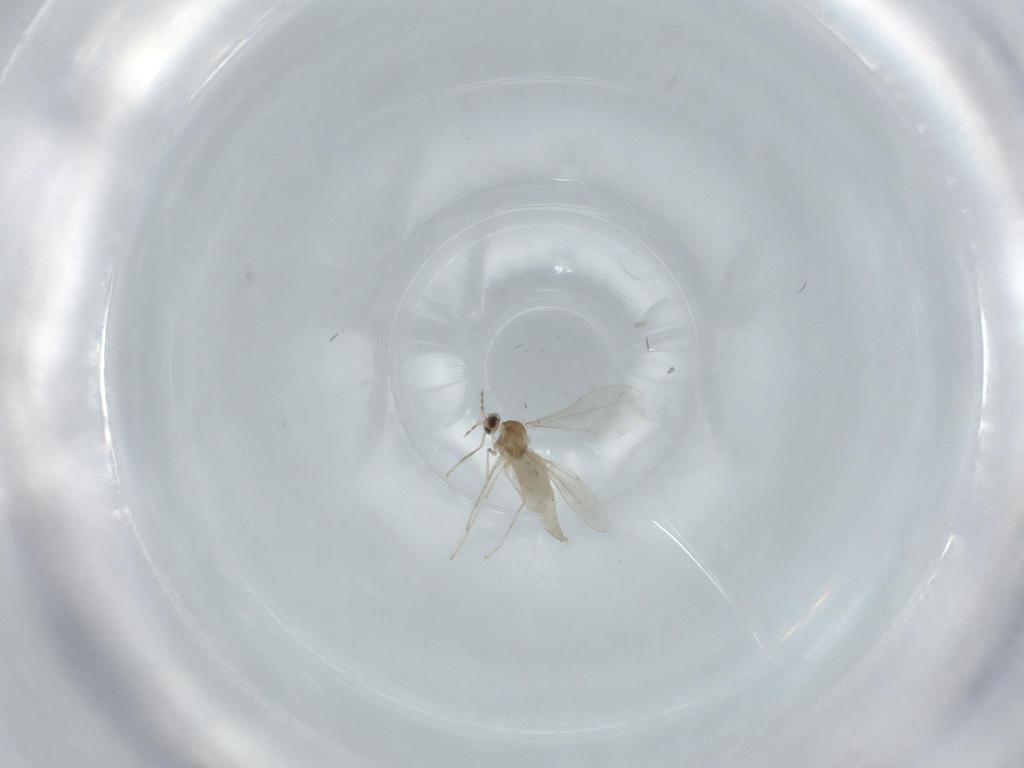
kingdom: Animalia
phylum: Arthropoda
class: Insecta
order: Diptera
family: Cecidomyiidae
